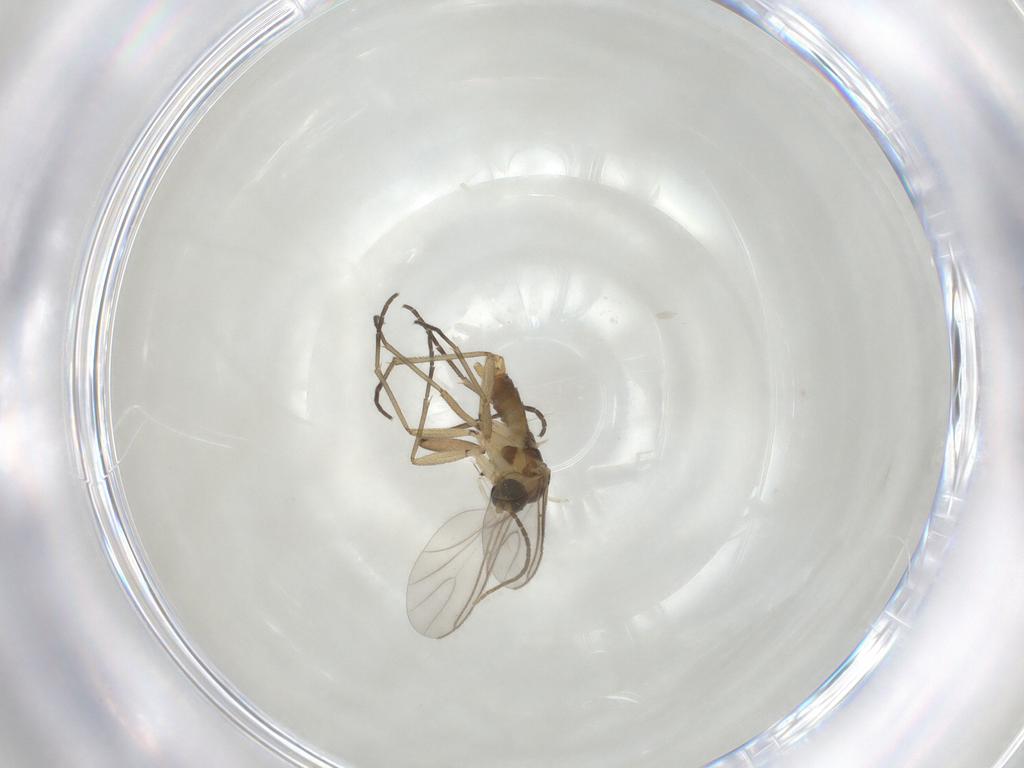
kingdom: Animalia
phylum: Arthropoda
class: Insecta
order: Diptera
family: Cecidomyiidae
